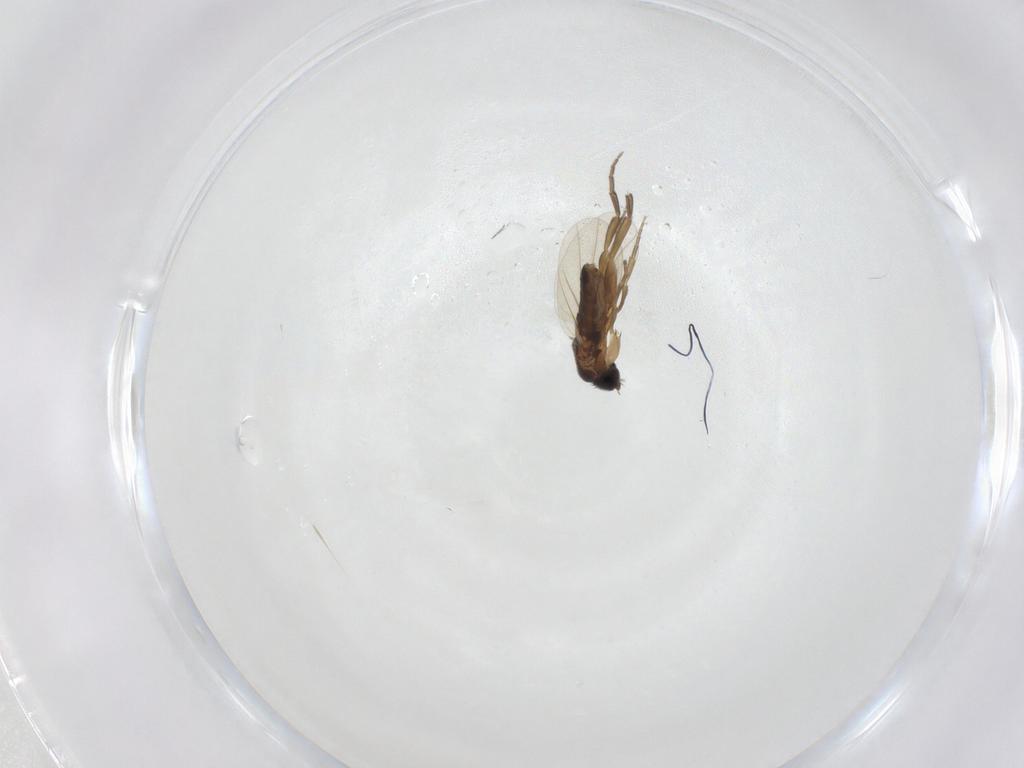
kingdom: Animalia
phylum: Arthropoda
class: Insecta
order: Diptera
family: Phoridae
